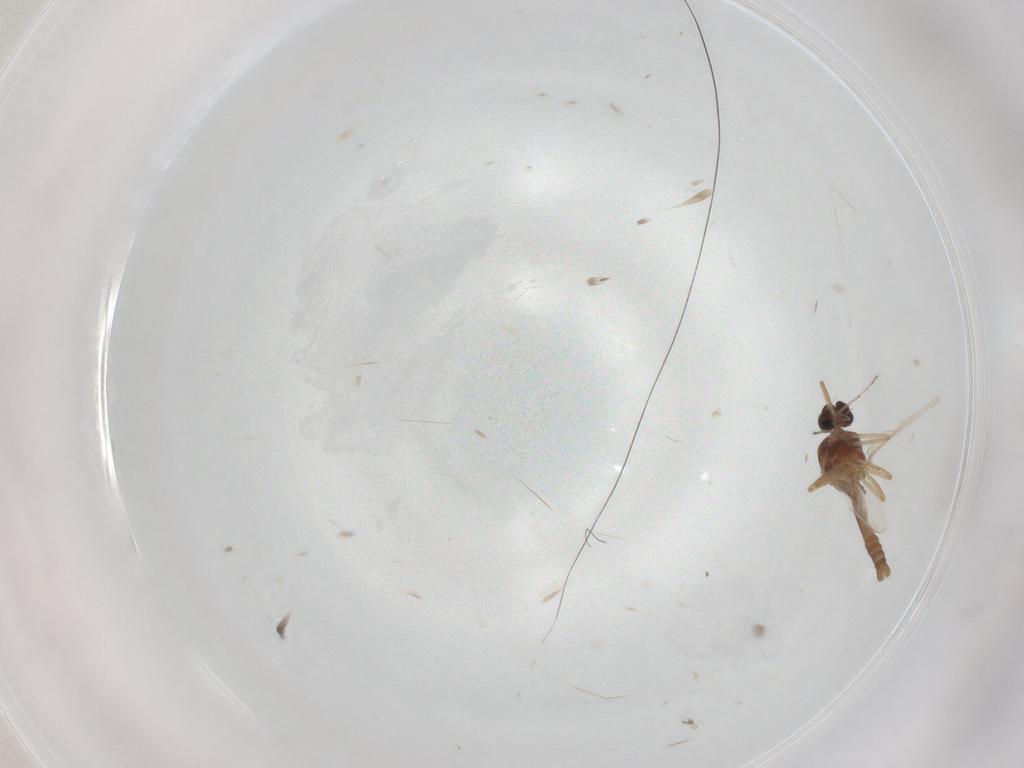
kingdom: Animalia
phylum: Arthropoda
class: Insecta
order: Diptera
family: Ceratopogonidae
